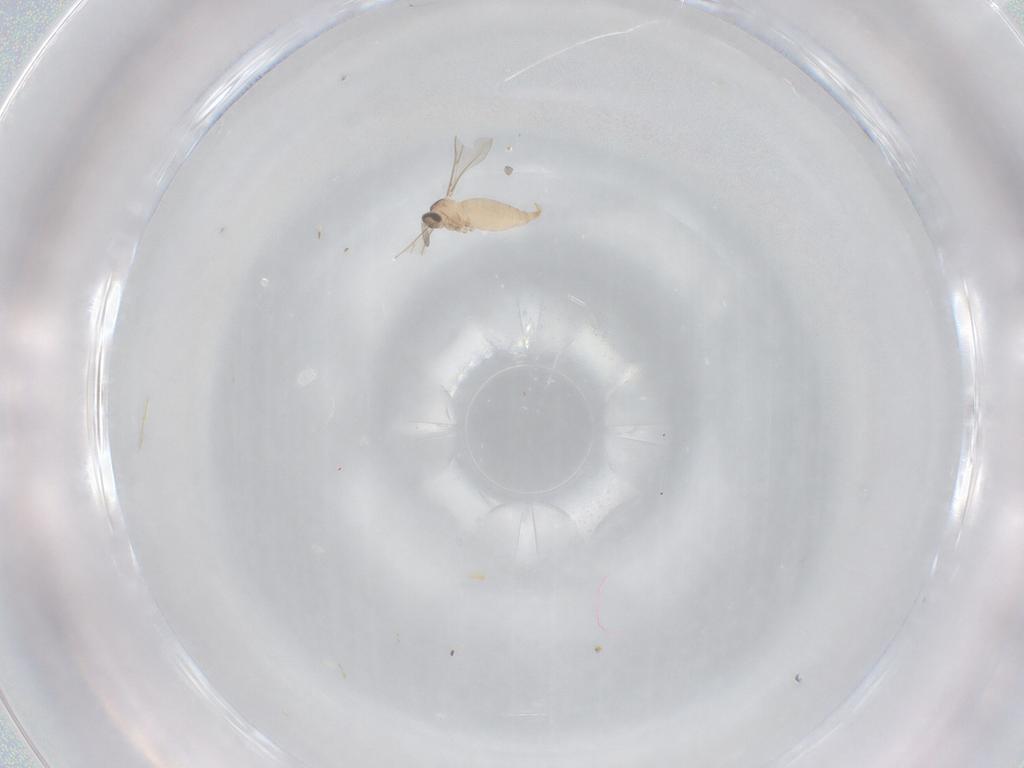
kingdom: Animalia
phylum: Arthropoda
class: Insecta
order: Diptera
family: Cecidomyiidae
